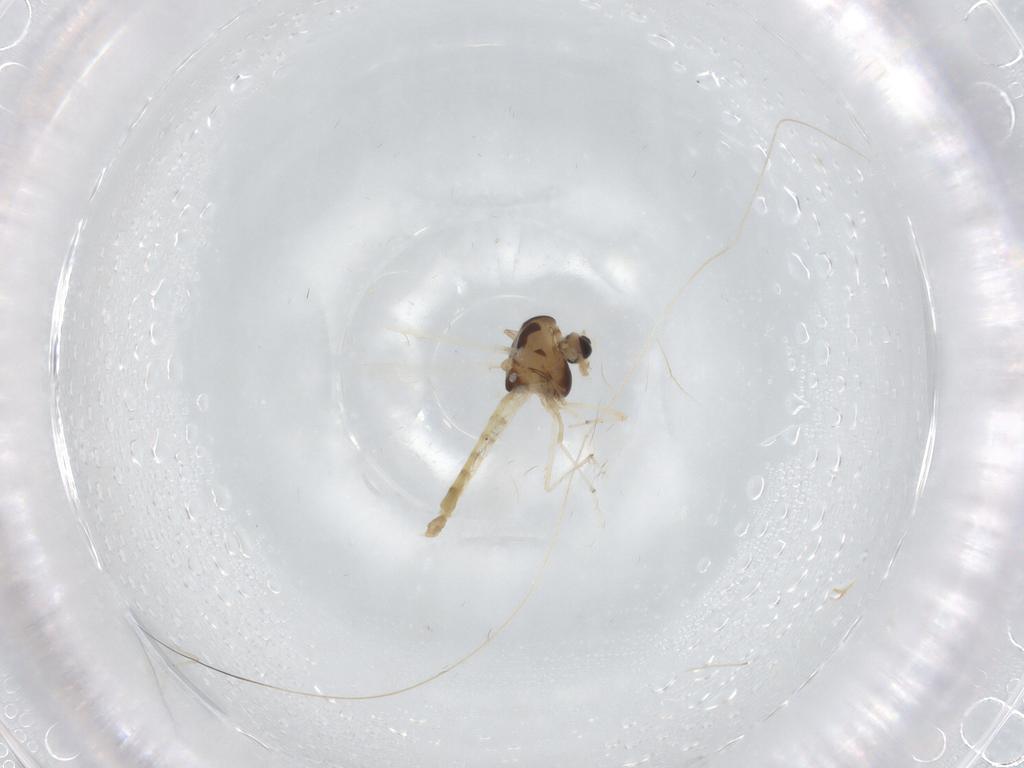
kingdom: Animalia
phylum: Arthropoda
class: Insecta
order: Diptera
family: Chironomidae
